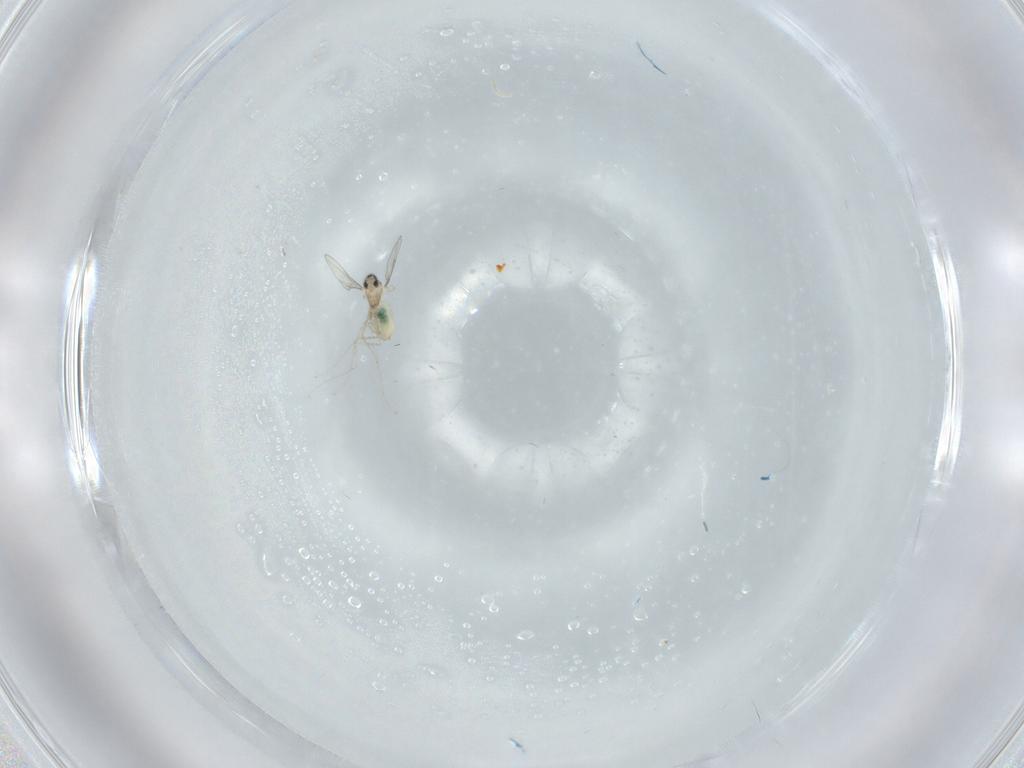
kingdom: Animalia
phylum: Arthropoda
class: Insecta
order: Diptera
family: Cecidomyiidae
